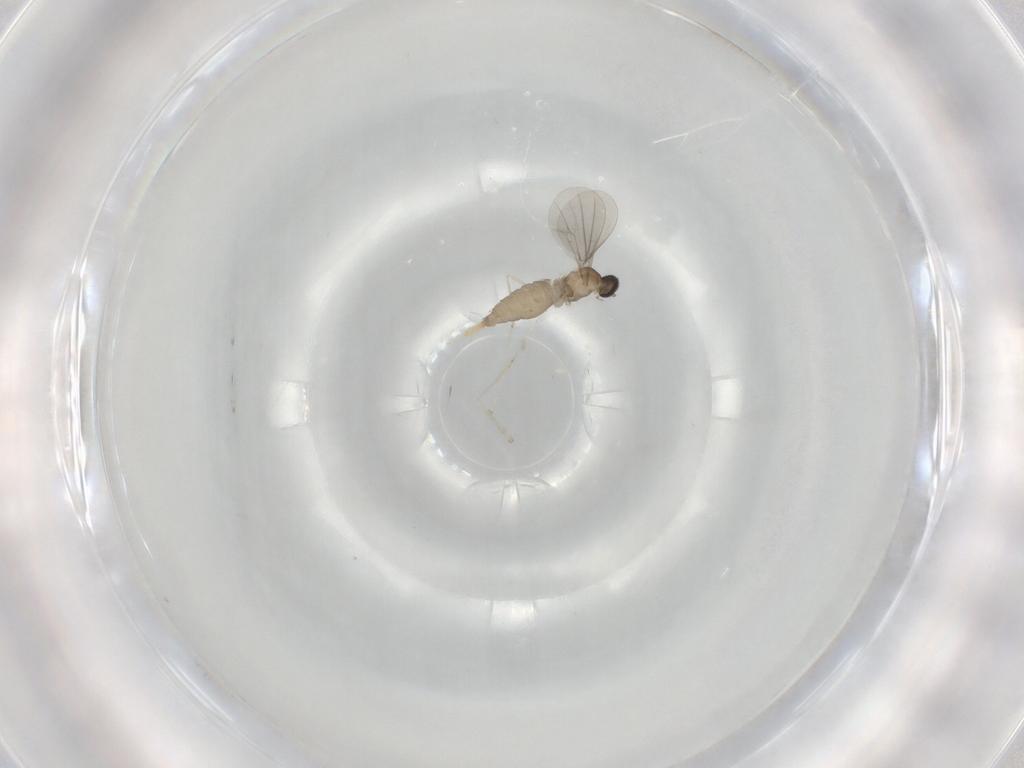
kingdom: Animalia
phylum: Arthropoda
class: Insecta
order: Diptera
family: Cecidomyiidae
